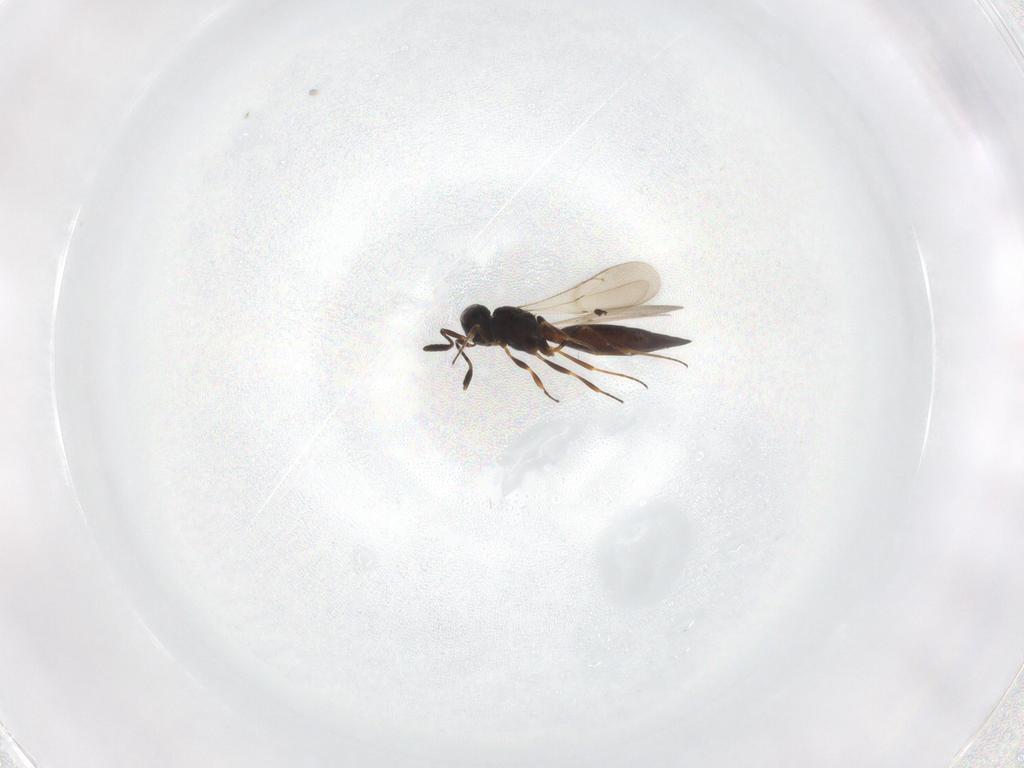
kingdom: Animalia
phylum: Arthropoda
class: Insecta
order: Hymenoptera
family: Scelionidae
